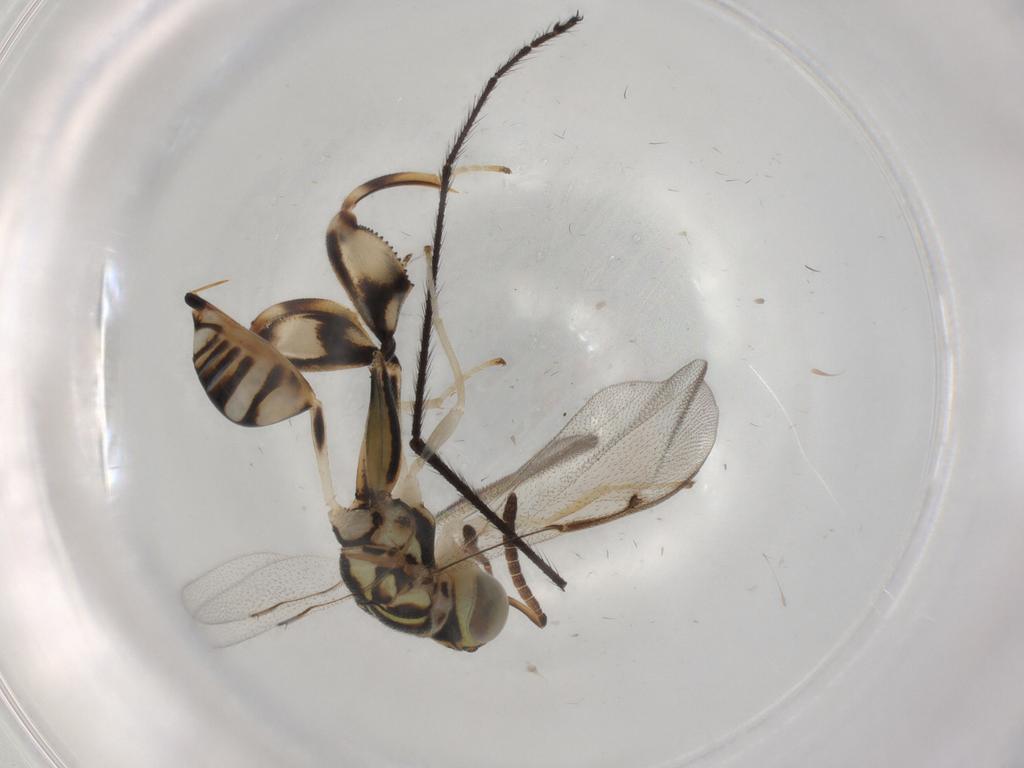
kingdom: Animalia
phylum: Arthropoda
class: Insecta
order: Hymenoptera
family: Chalcididae
